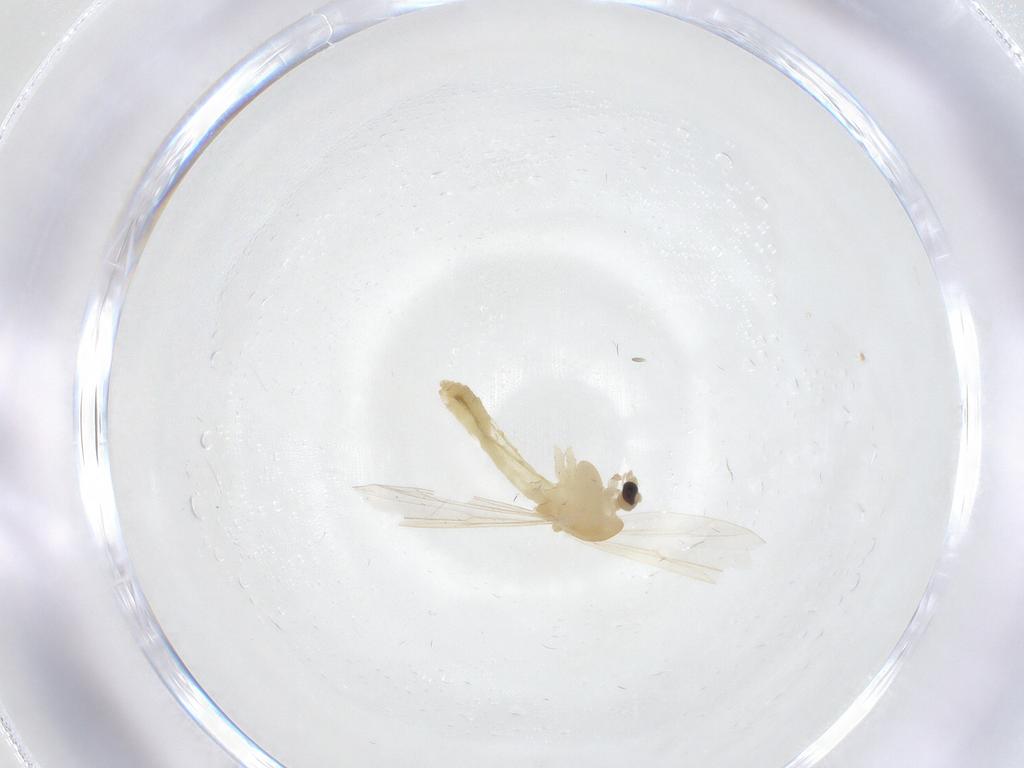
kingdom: Animalia
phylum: Arthropoda
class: Insecta
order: Diptera
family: Chironomidae
